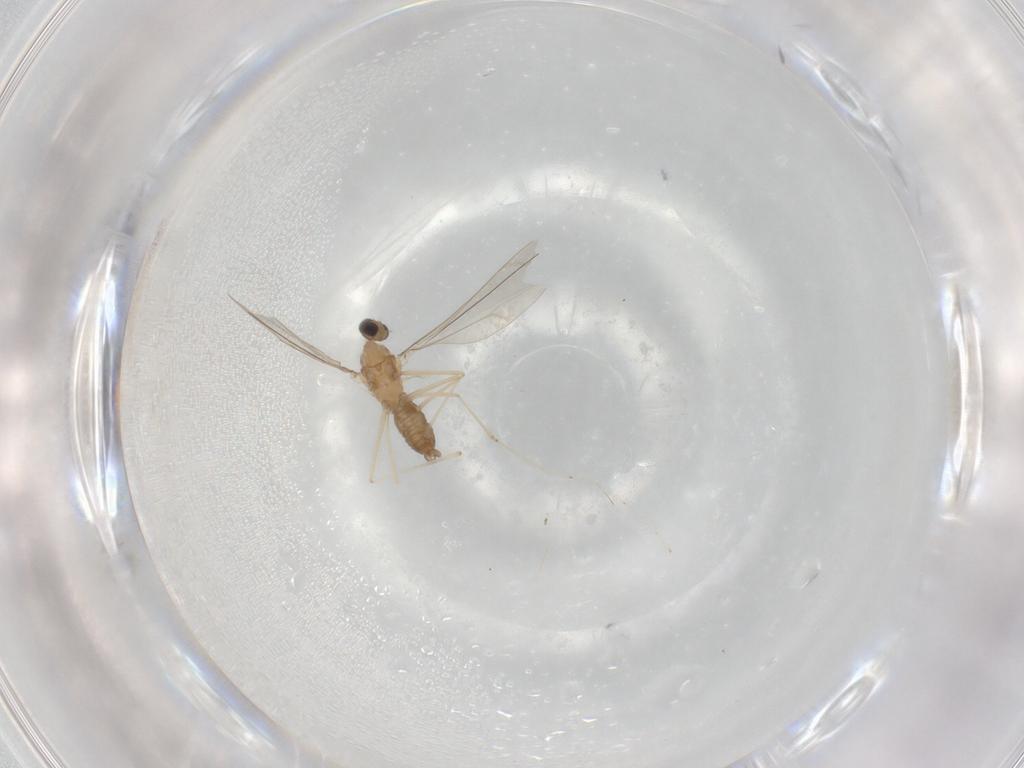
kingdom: Animalia
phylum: Arthropoda
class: Insecta
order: Diptera
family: Cecidomyiidae
